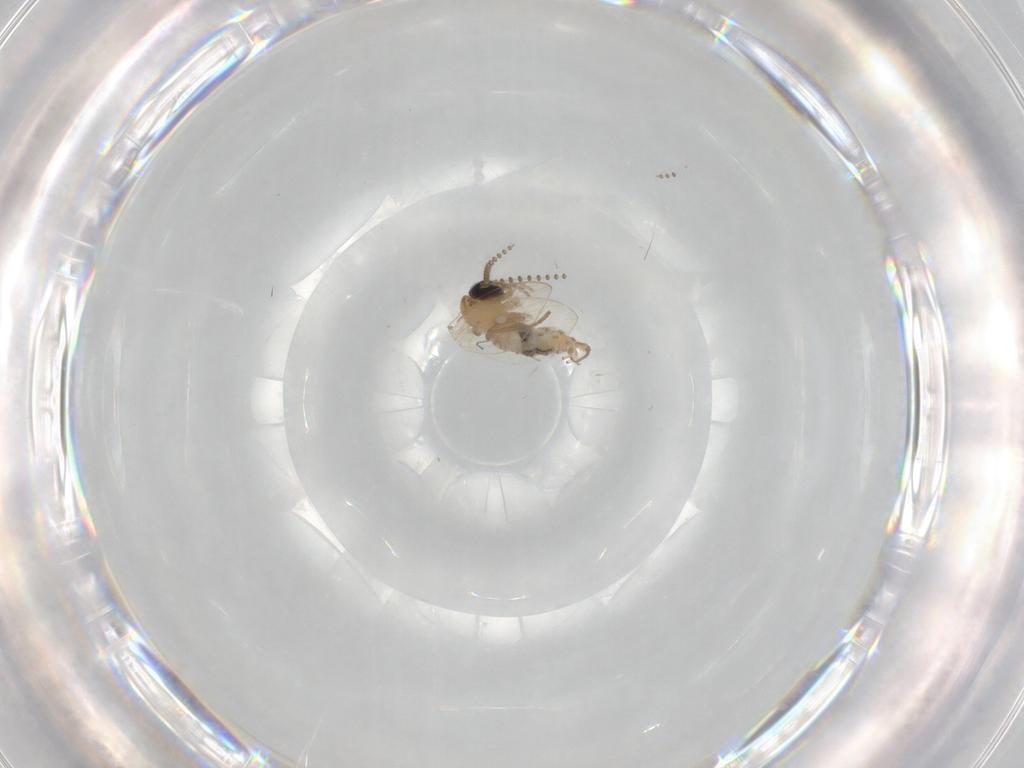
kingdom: Animalia
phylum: Arthropoda
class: Insecta
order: Diptera
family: Psychodidae
